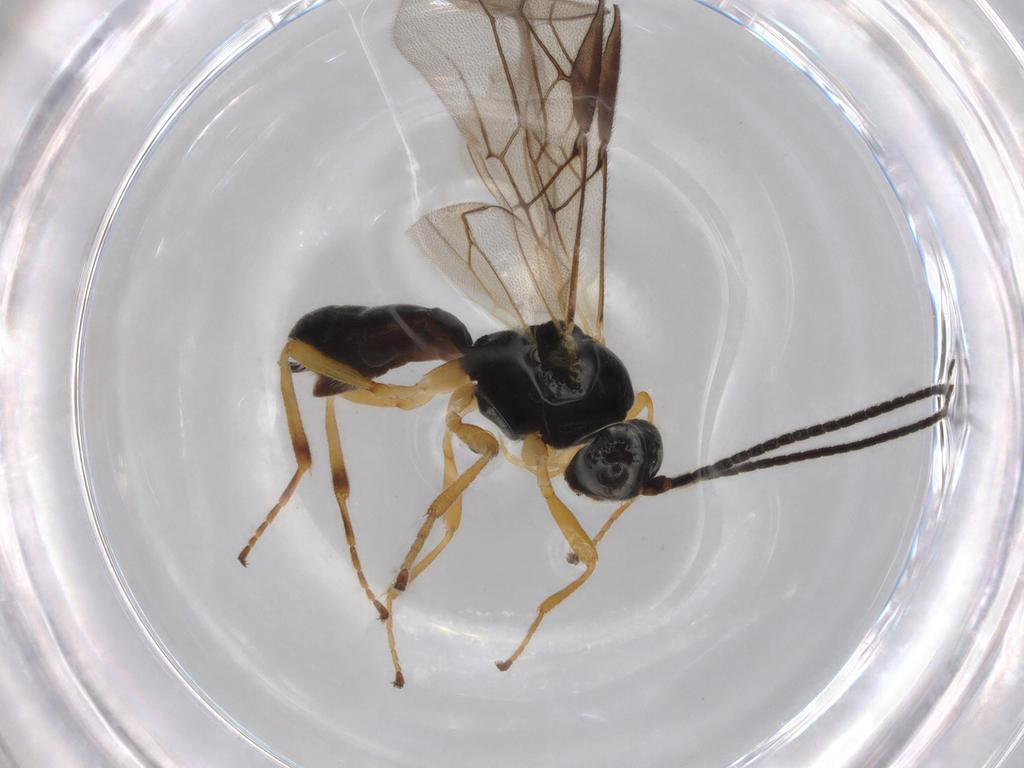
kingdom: Animalia
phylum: Arthropoda
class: Insecta
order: Hymenoptera
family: Braconidae
